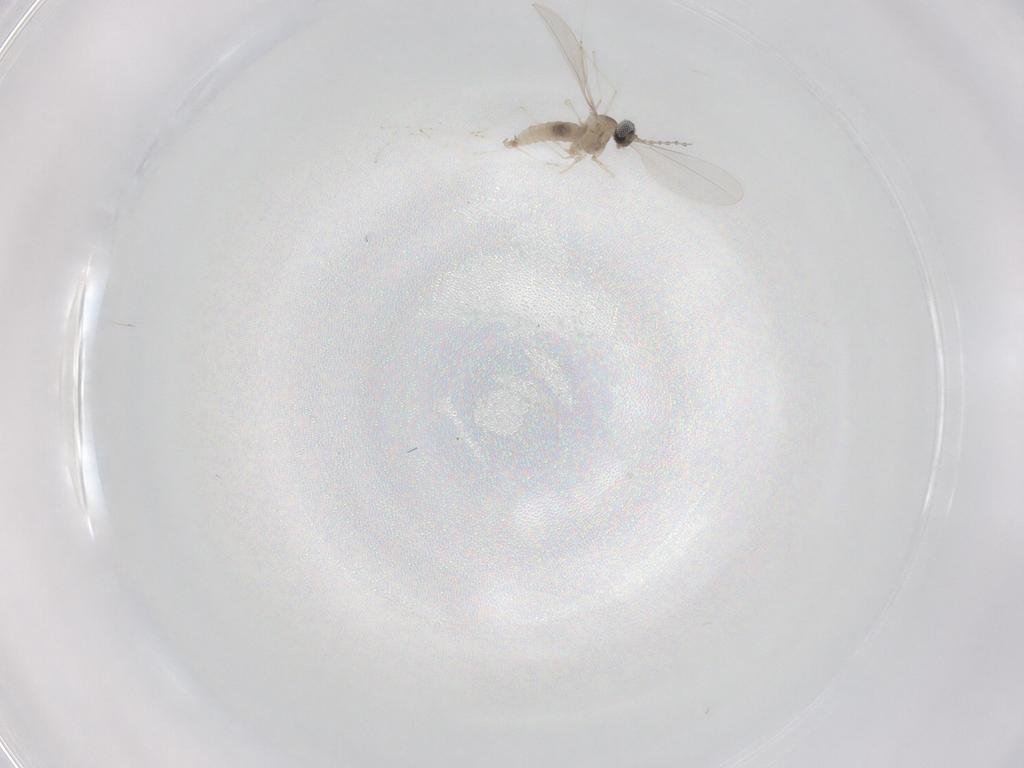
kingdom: Animalia
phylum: Arthropoda
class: Insecta
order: Diptera
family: Cecidomyiidae
